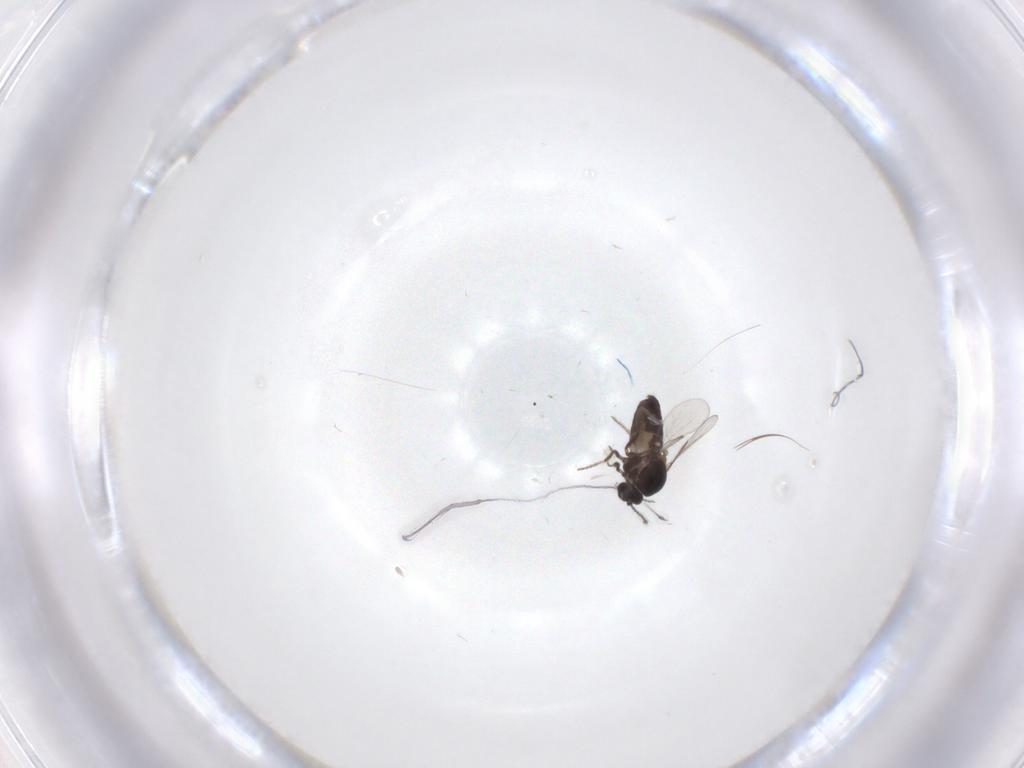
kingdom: Animalia
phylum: Arthropoda
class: Insecta
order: Diptera
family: Ceratopogonidae
